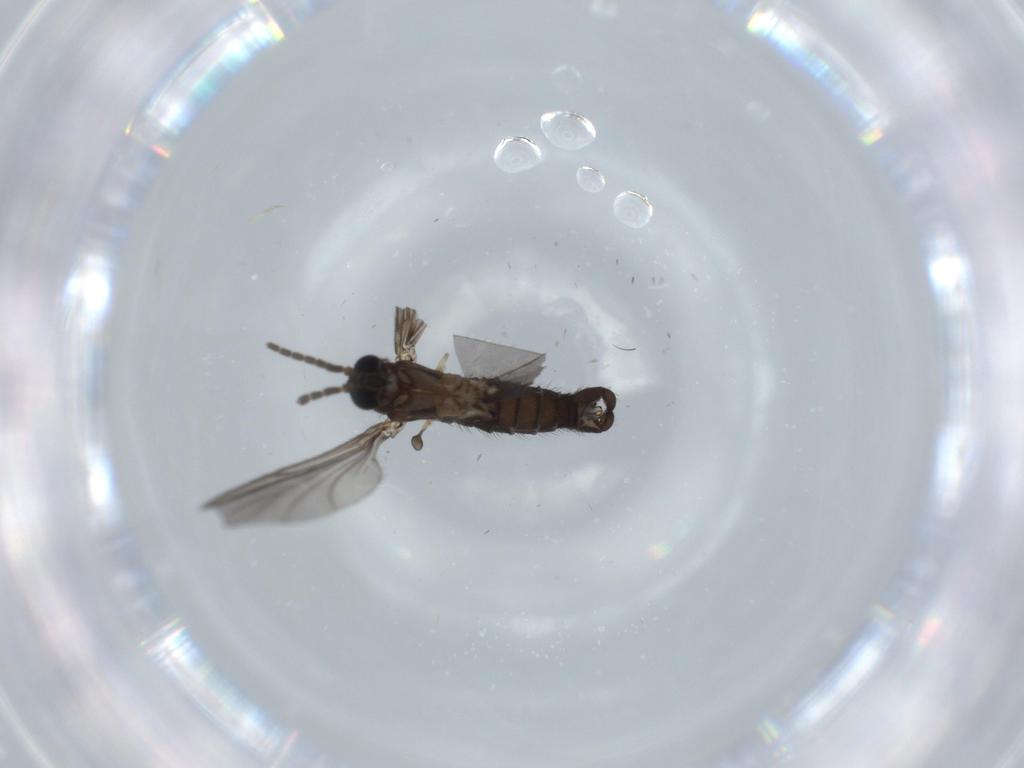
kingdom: Animalia
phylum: Arthropoda
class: Insecta
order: Diptera
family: Sciaridae
